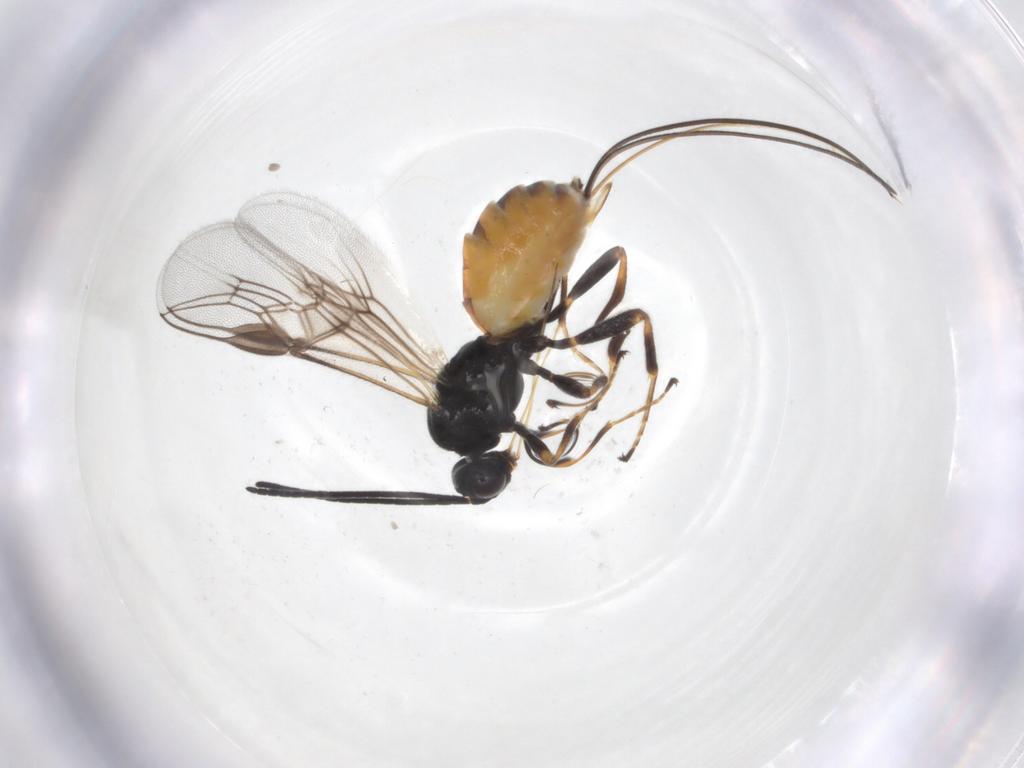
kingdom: Animalia
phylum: Arthropoda
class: Insecta
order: Hymenoptera
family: Braconidae
